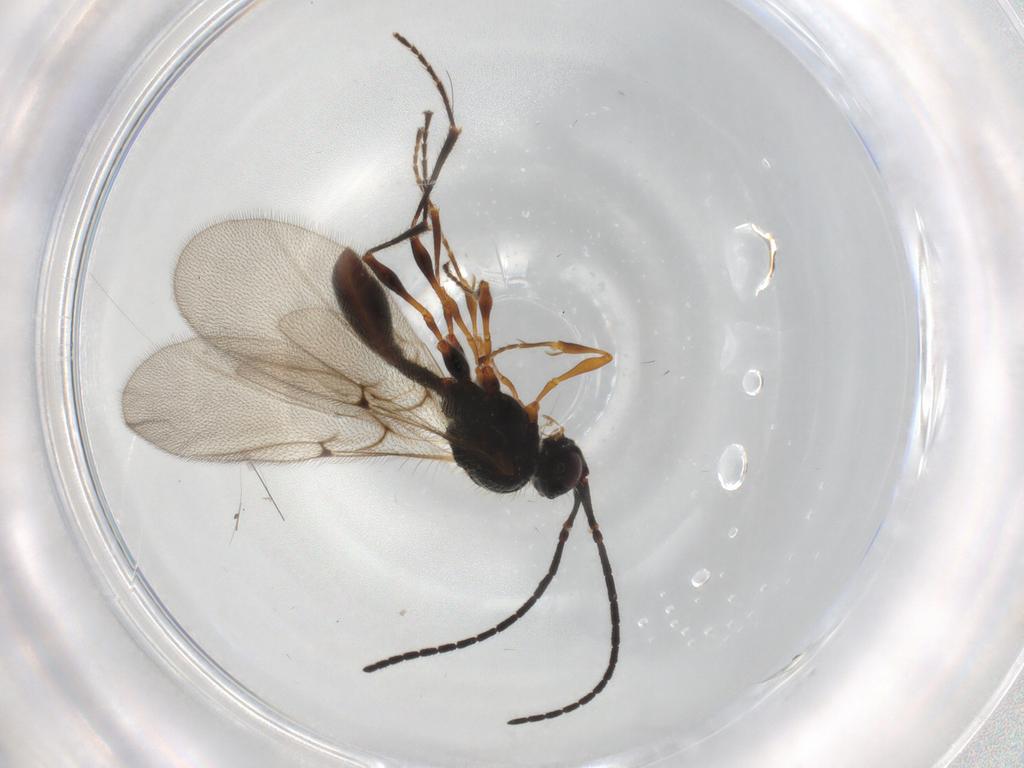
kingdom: Animalia
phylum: Arthropoda
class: Insecta
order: Hymenoptera
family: Diapriidae
